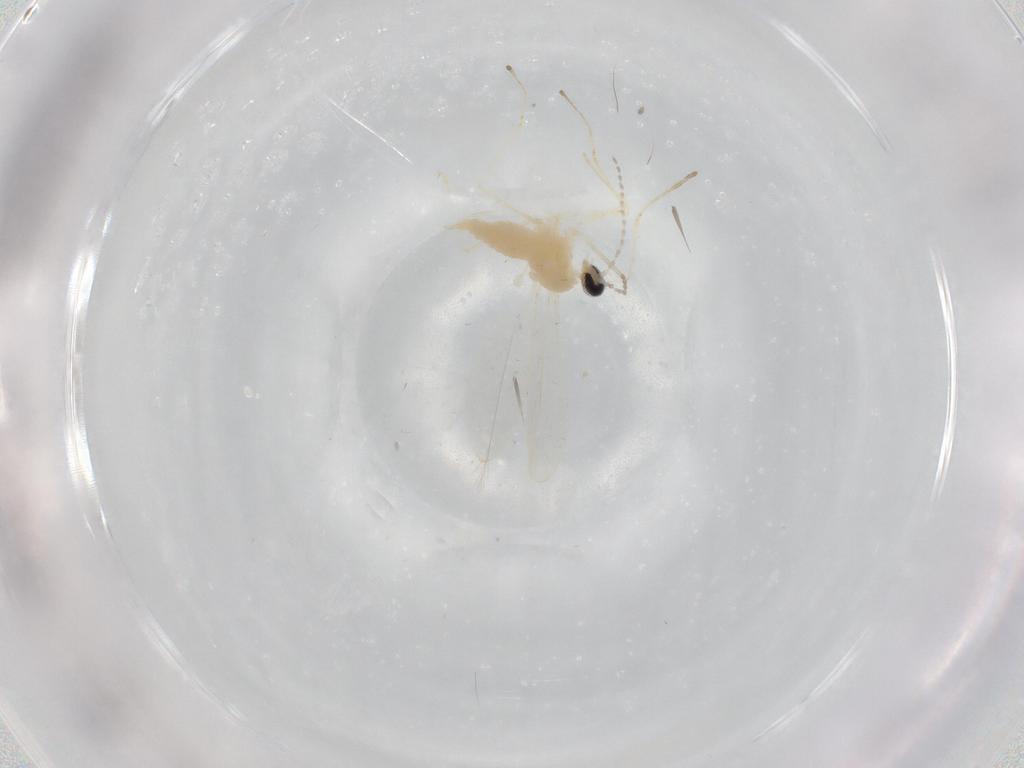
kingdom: Animalia
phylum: Arthropoda
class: Insecta
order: Diptera
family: Cecidomyiidae
